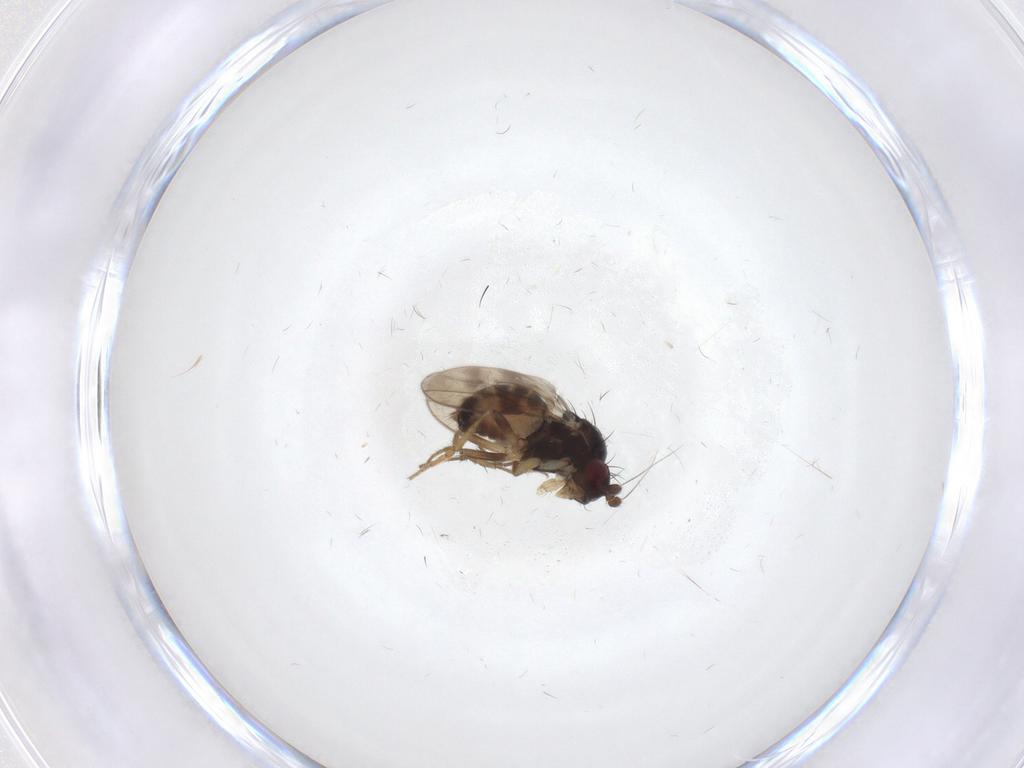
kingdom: Animalia
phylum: Arthropoda
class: Insecta
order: Diptera
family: Sphaeroceridae
